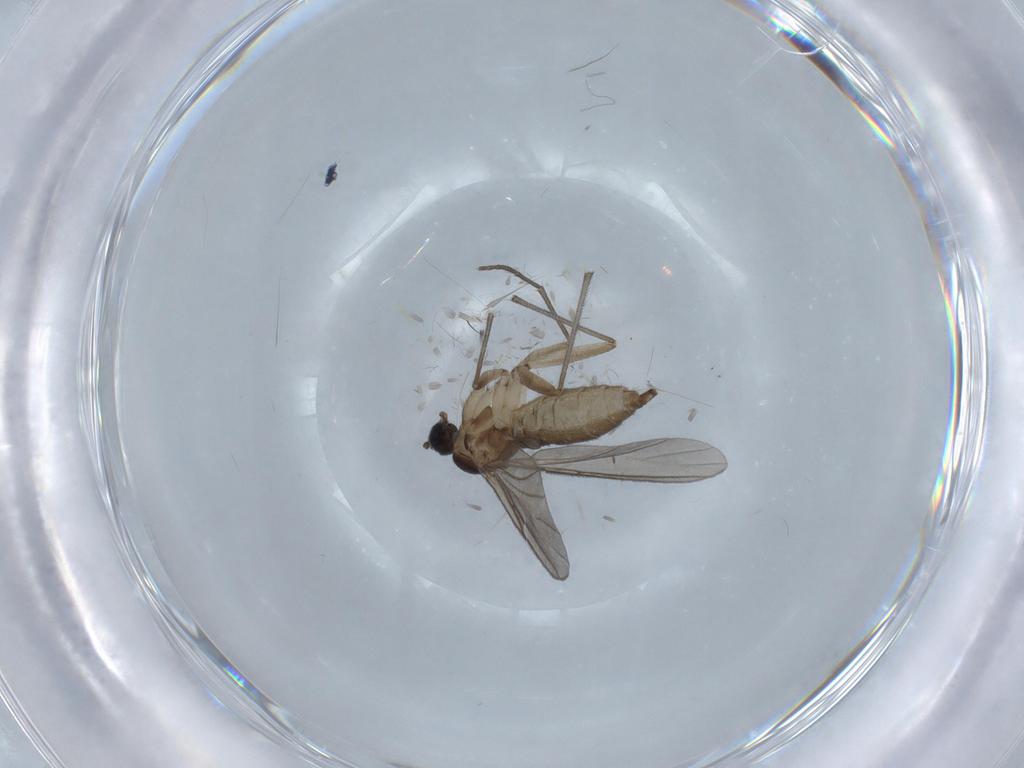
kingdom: Animalia
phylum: Arthropoda
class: Insecta
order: Diptera
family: Sciaridae
